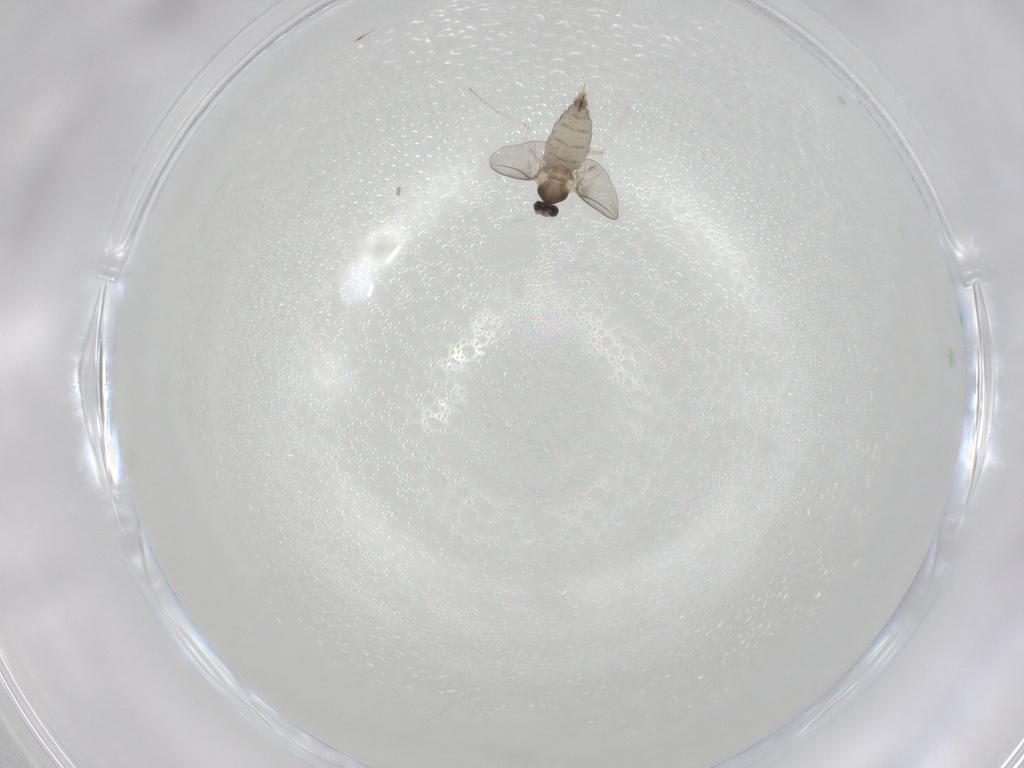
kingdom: Animalia
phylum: Arthropoda
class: Insecta
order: Diptera
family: Cecidomyiidae
